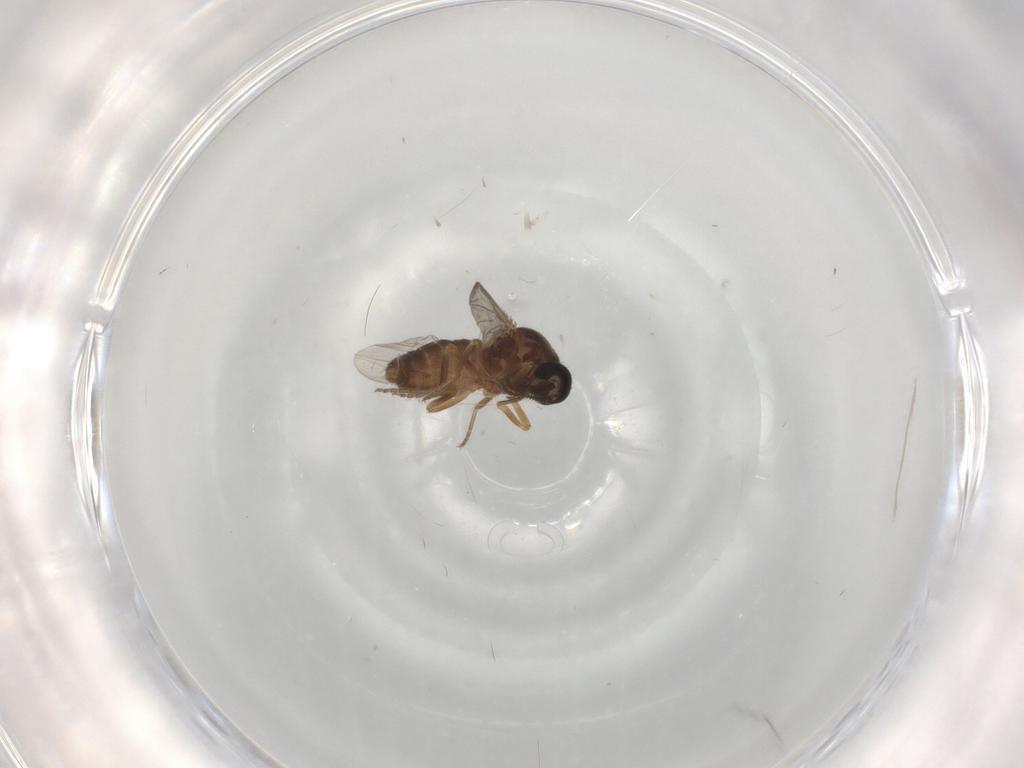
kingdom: Animalia
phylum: Arthropoda
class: Insecta
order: Diptera
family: Ceratopogonidae
